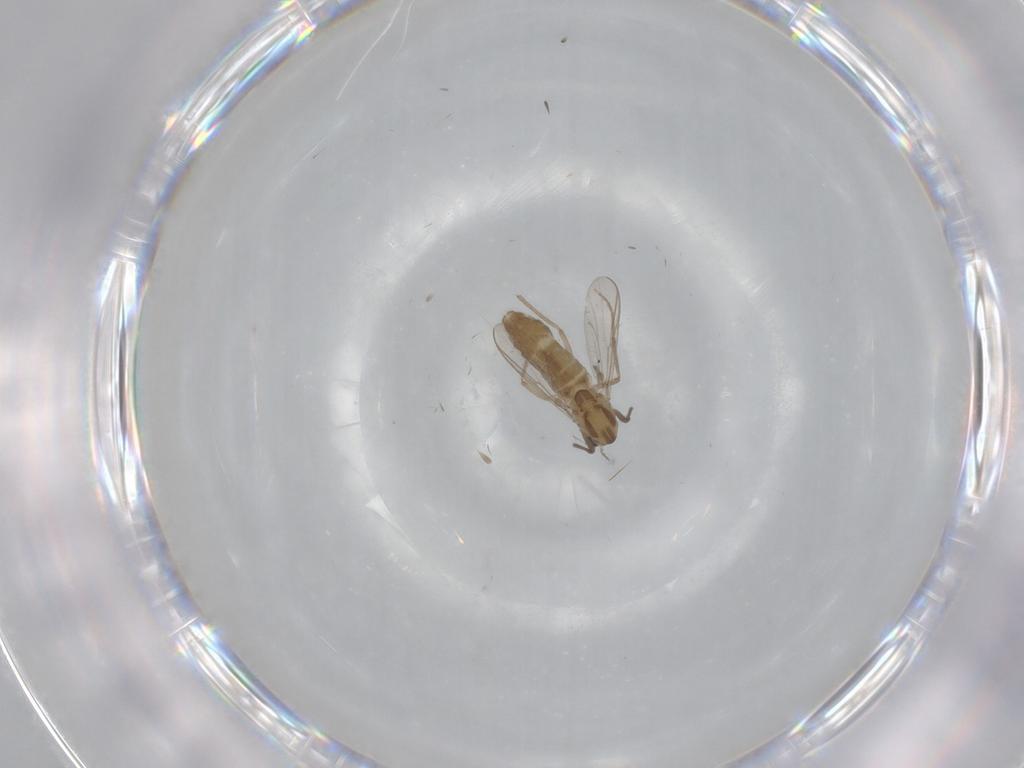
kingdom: Animalia
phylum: Arthropoda
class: Insecta
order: Diptera
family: Chironomidae
